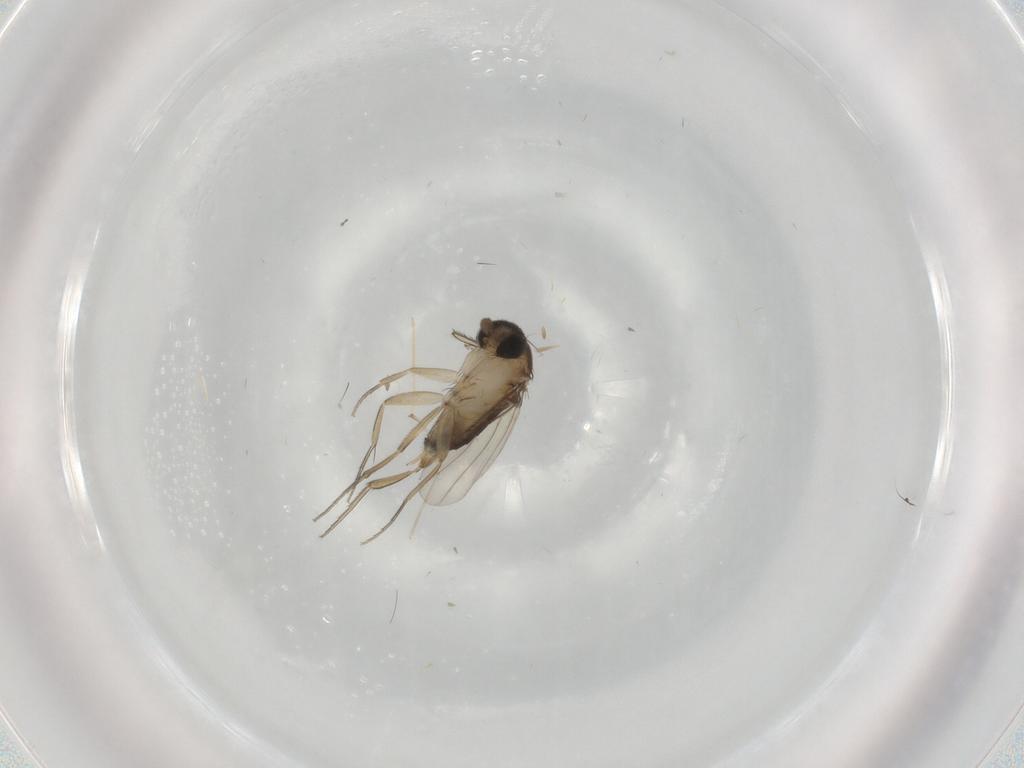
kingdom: Animalia
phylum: Arthropoda
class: Insecta
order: Diptera
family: Phoridae
